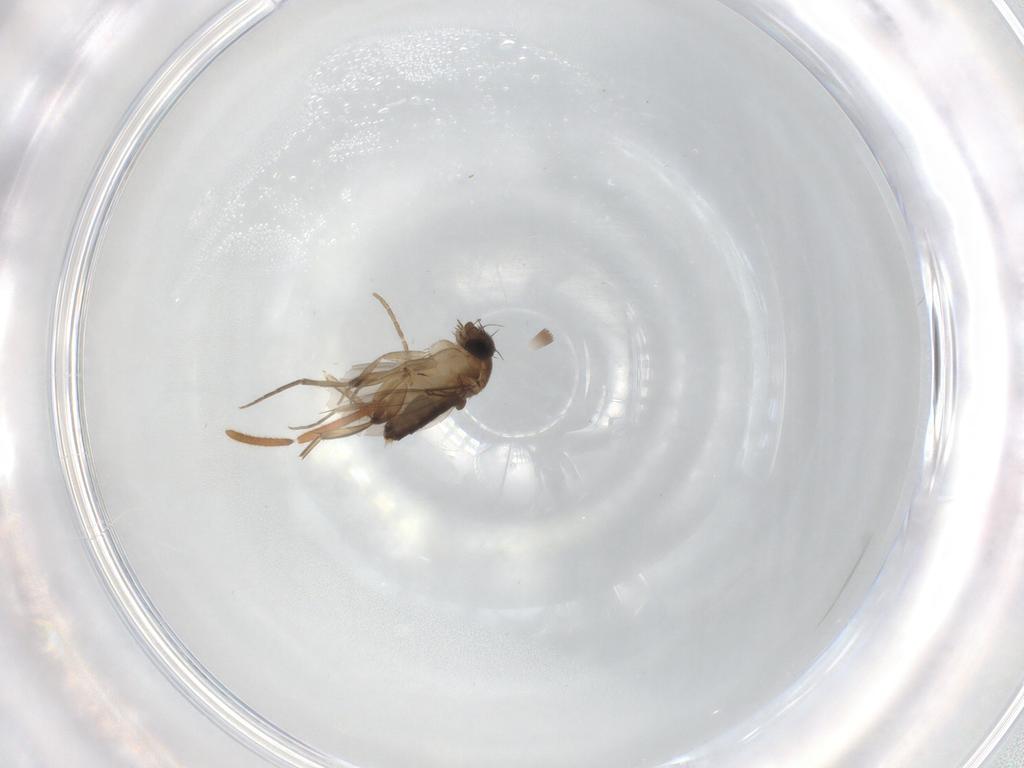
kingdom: Animalia
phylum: Arthropoda
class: Insecta
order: Diptera
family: Phoridae
